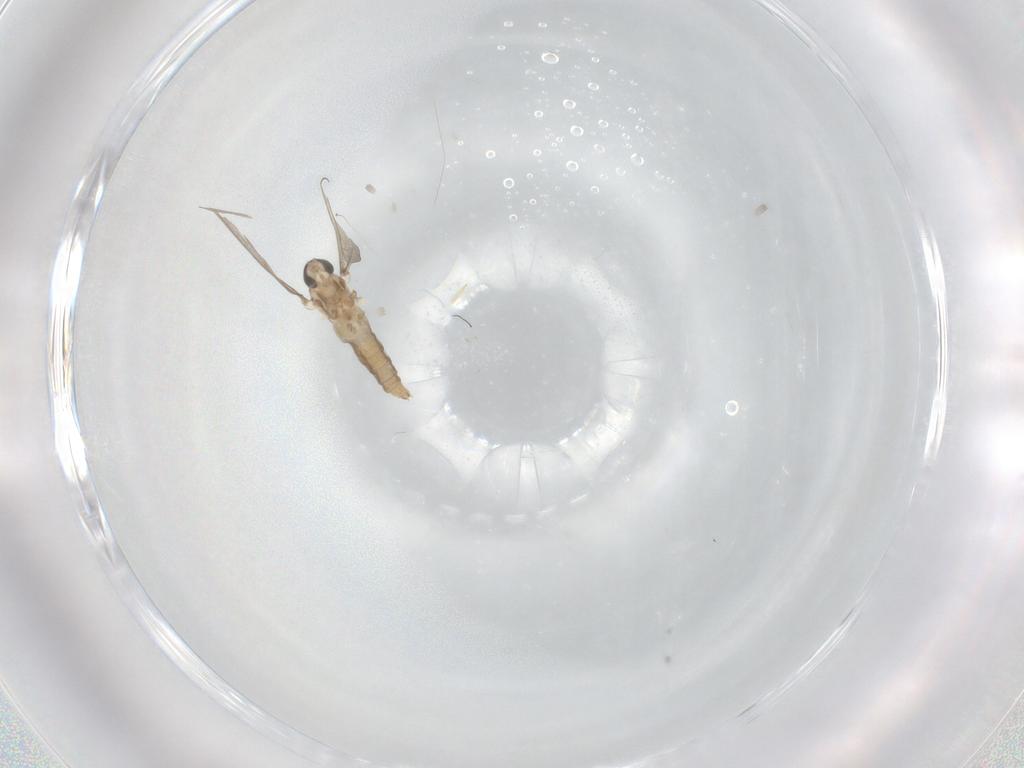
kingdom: Animalia
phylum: Arthropoda
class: Insecta
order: Diptera
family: Cecidomyiidae
